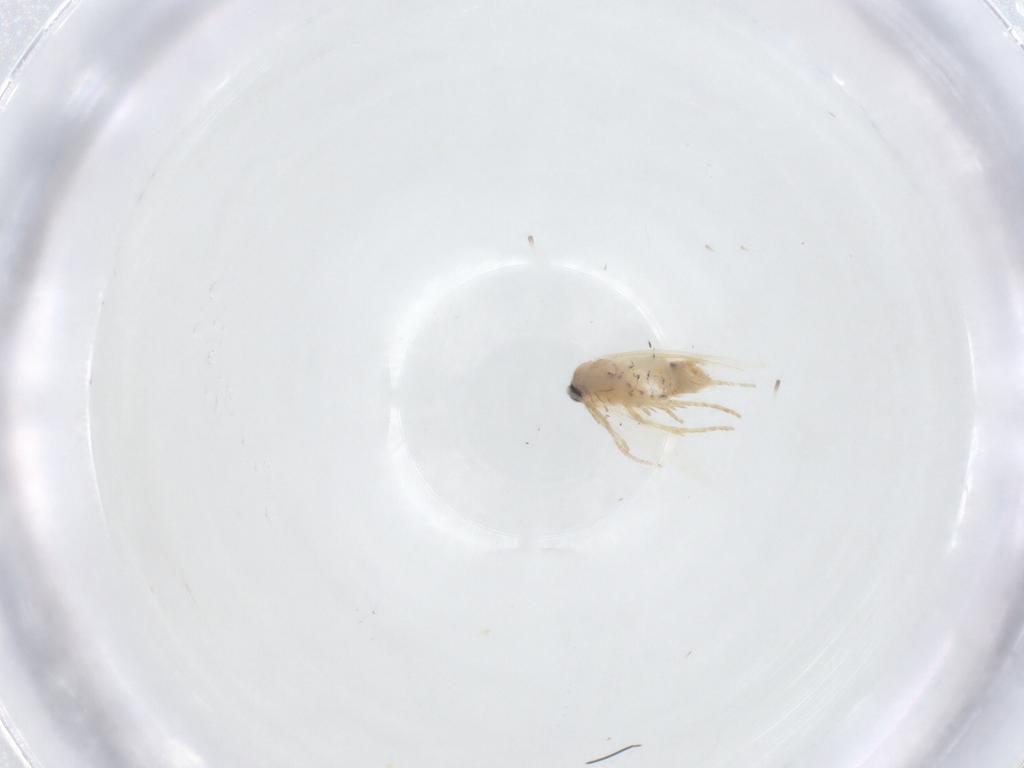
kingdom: Animalia
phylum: Arthropoda
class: Insecta
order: Lepidoptera
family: Nepticulidae
